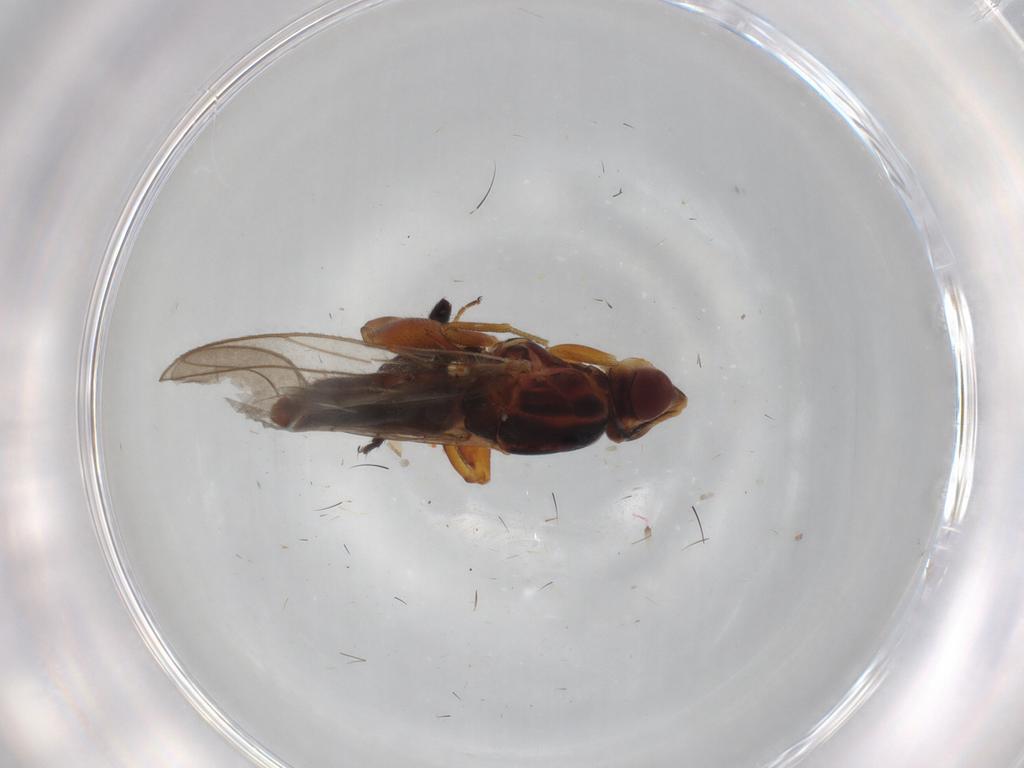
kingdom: Animalia
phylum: Arthropoda
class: Insecta
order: Diptera
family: Chloropidae
